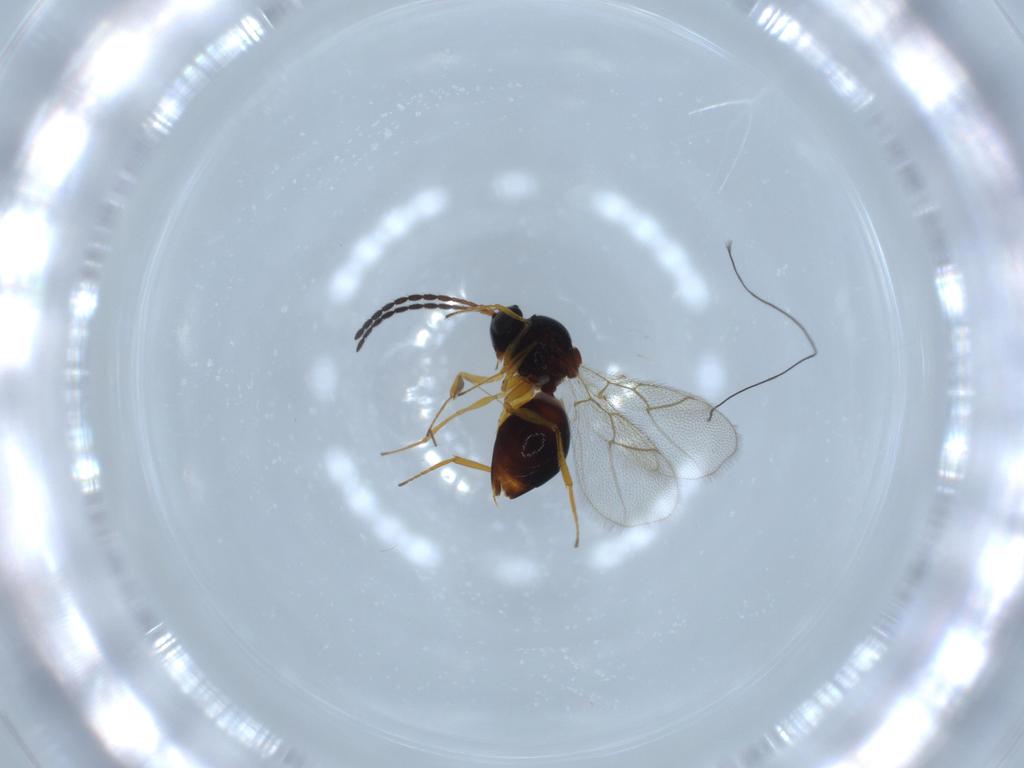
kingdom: Animalia
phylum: Arthropoda
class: Insecta
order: Hymenoptera
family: Figitidae
